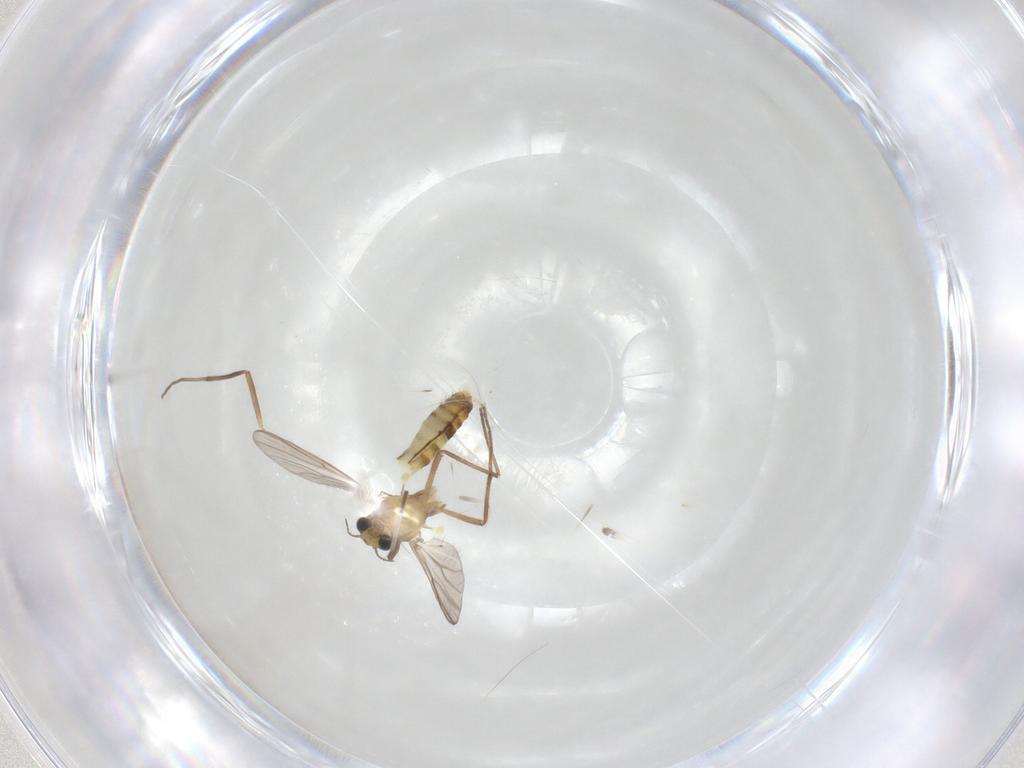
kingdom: Animalia
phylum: Arthropoda
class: Insecta
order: Diptera
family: Chironomidae
